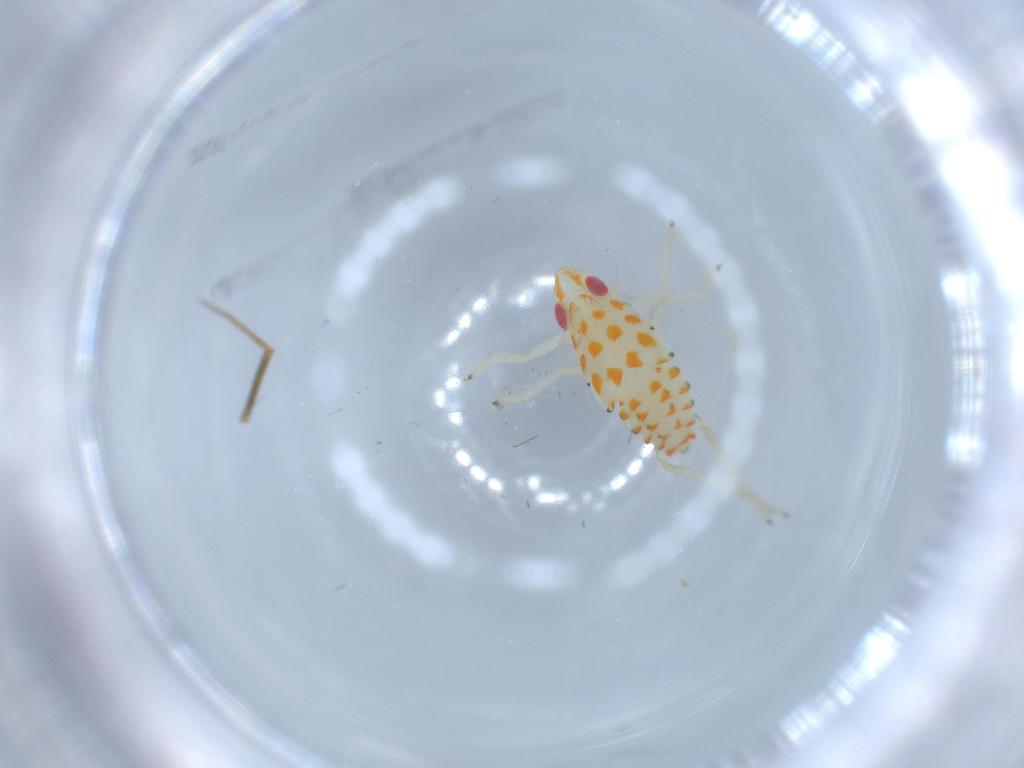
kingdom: Animalia
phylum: Arthropoda
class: Insecta
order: Hemiptera
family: Tropiduchidae
